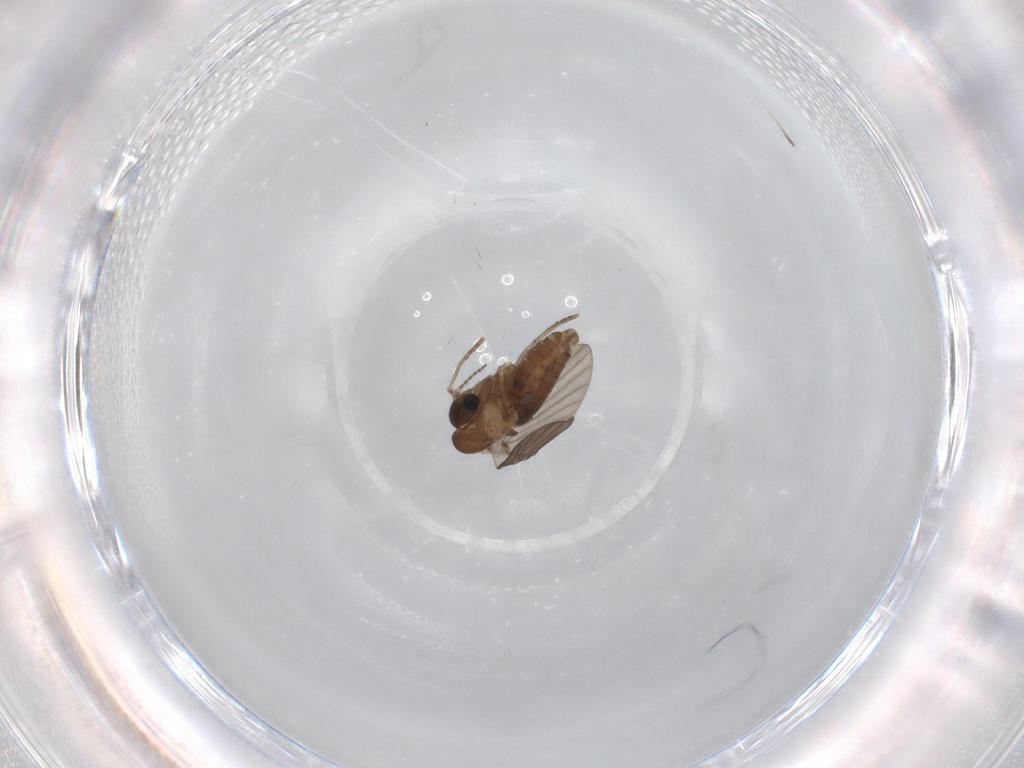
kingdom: Animalia
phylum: Arthropoda
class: Insecta
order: Diptera
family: Psychodidae
